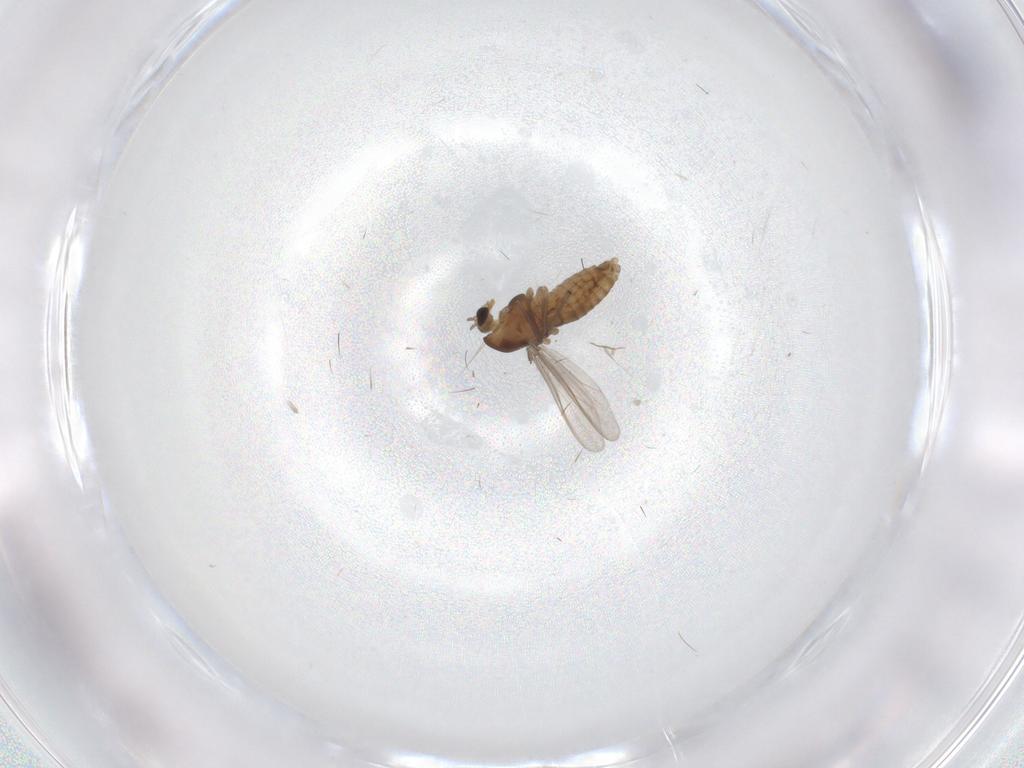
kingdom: Animalia
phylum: Arthropoda
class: Insecta
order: Diptera
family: Chironomidae
